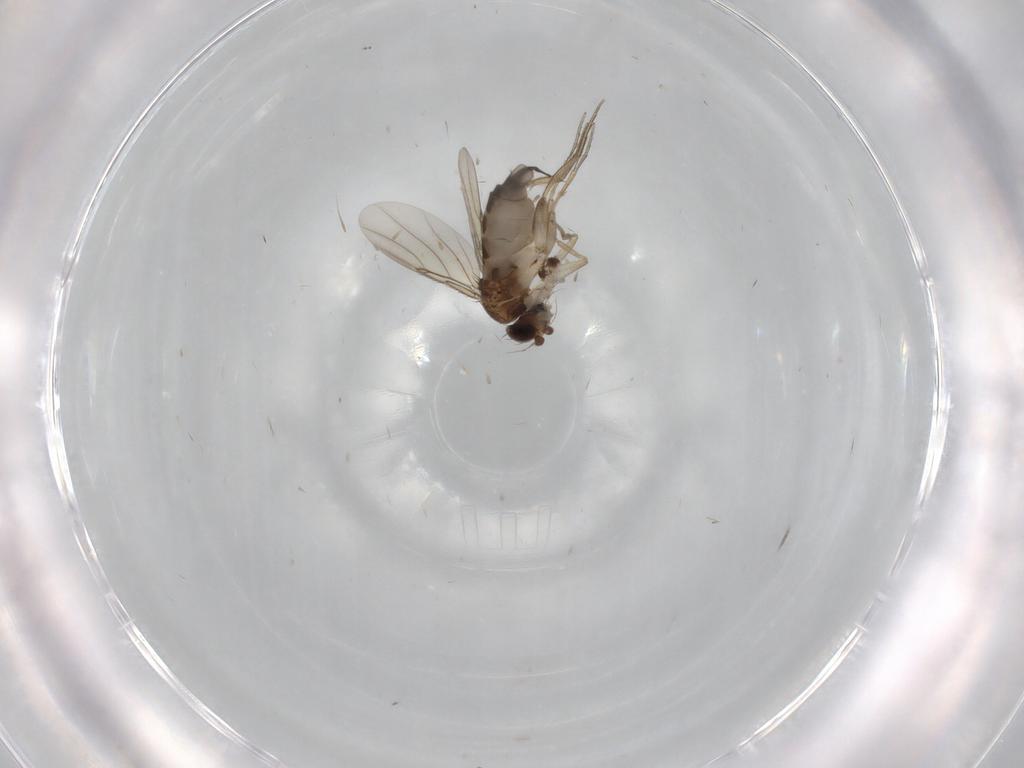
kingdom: Animalia
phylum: Arthropoda
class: Insecta
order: Diptera
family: Phoridae
